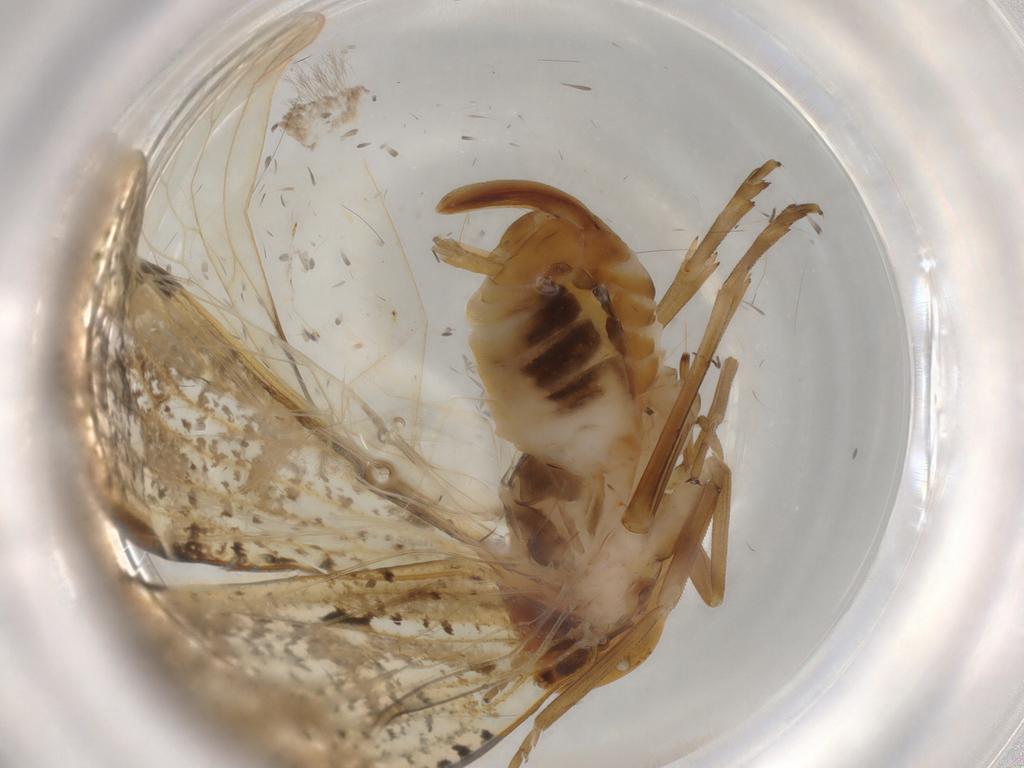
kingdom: Animalia
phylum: Arthropoda
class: Insecta
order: Hemiptera
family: Cixiidae
